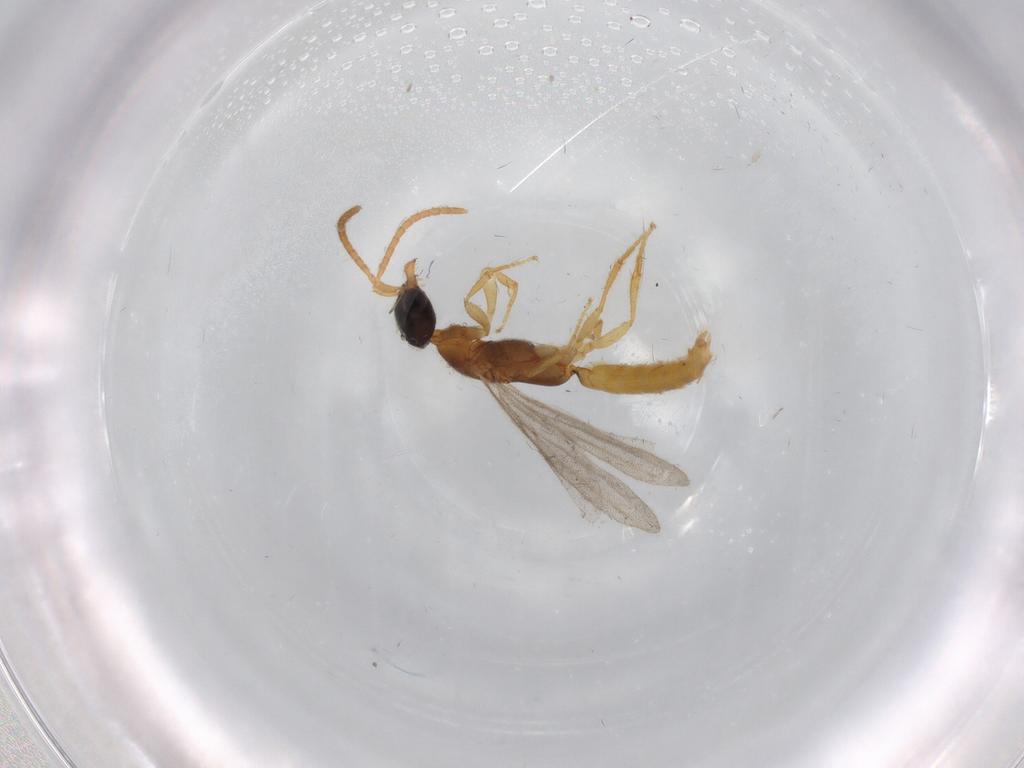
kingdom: Animalia
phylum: Arthropoda
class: Insecta
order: Hymenoptera
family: Bethylidae
